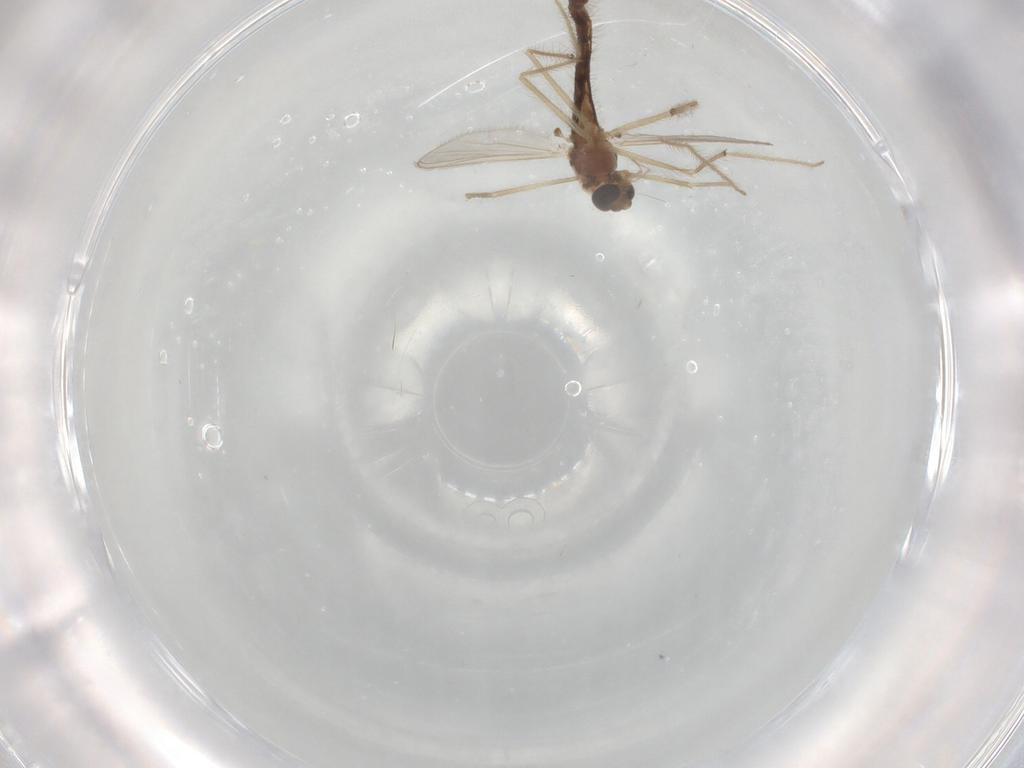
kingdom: Animalia
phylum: Arthropoda
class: Insecta
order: Diptera
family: Chironomidae
